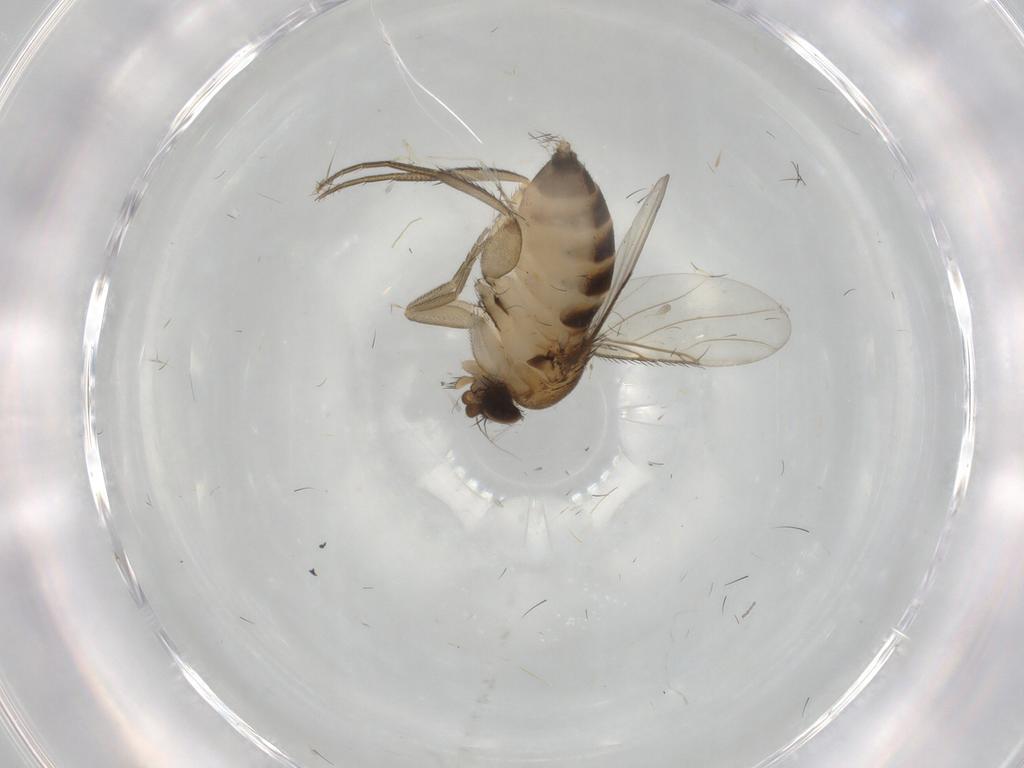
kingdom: Animalia
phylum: Arthropoda
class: Insecta
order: Diptera
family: Phoridae
